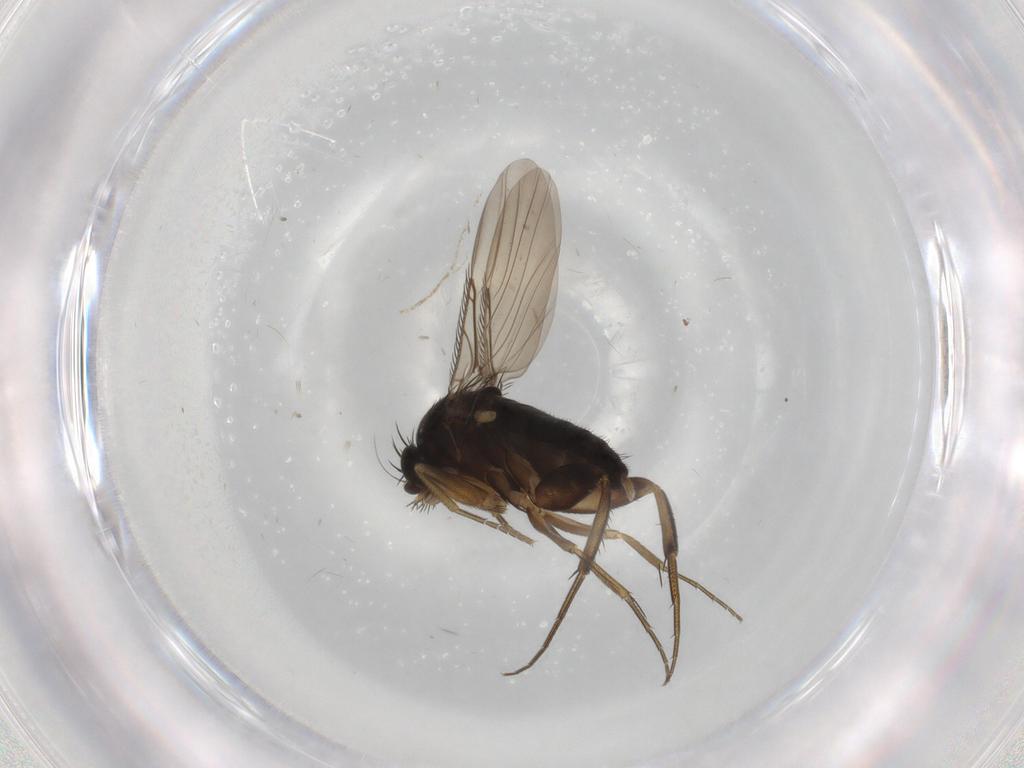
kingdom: Animalia
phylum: Arthropoda
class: Insecta
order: Diptera
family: Phoridae
